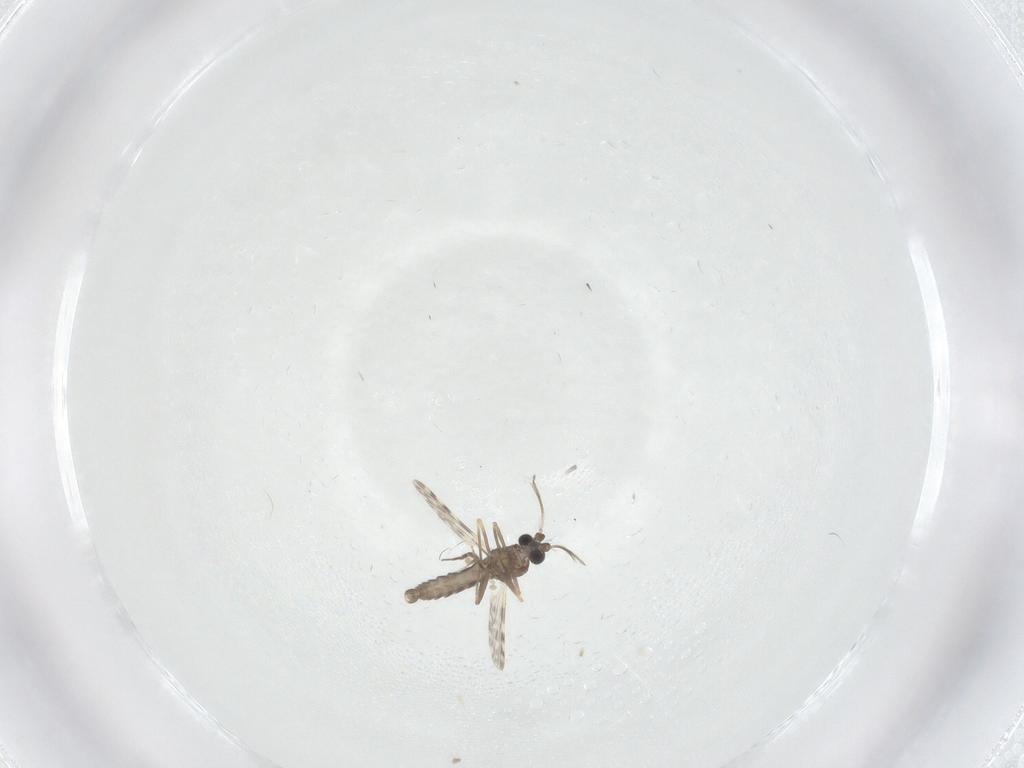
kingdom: Animalia
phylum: Arthropoda
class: Insecta
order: Diptera
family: Ceratopogonidae
